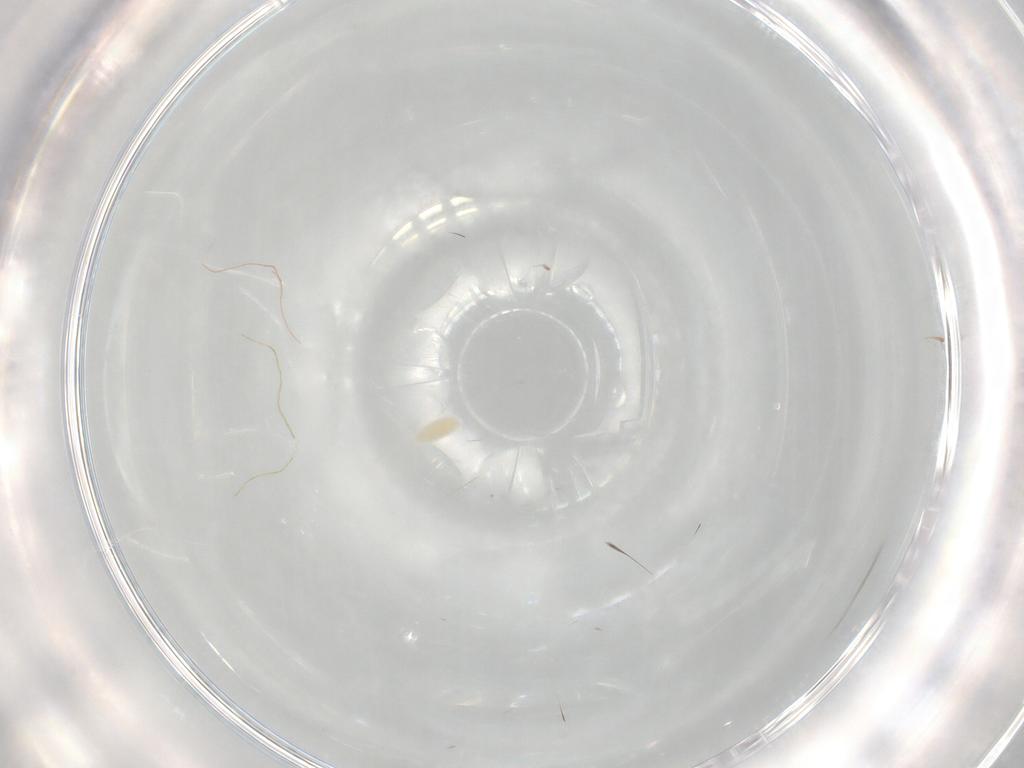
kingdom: Animalia
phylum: Arthropoda
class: Insecta
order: Diptera
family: Mycetophilidae
